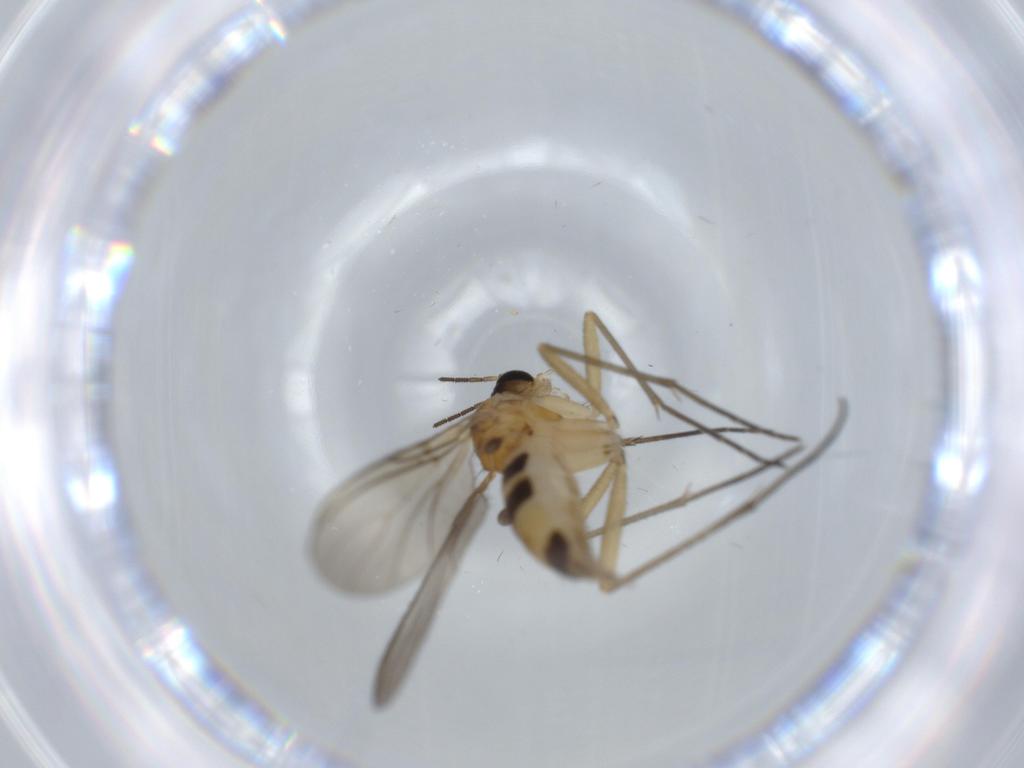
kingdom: Animalia
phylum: Arthropoda
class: Insecta
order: Diptera
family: Sciaridae
